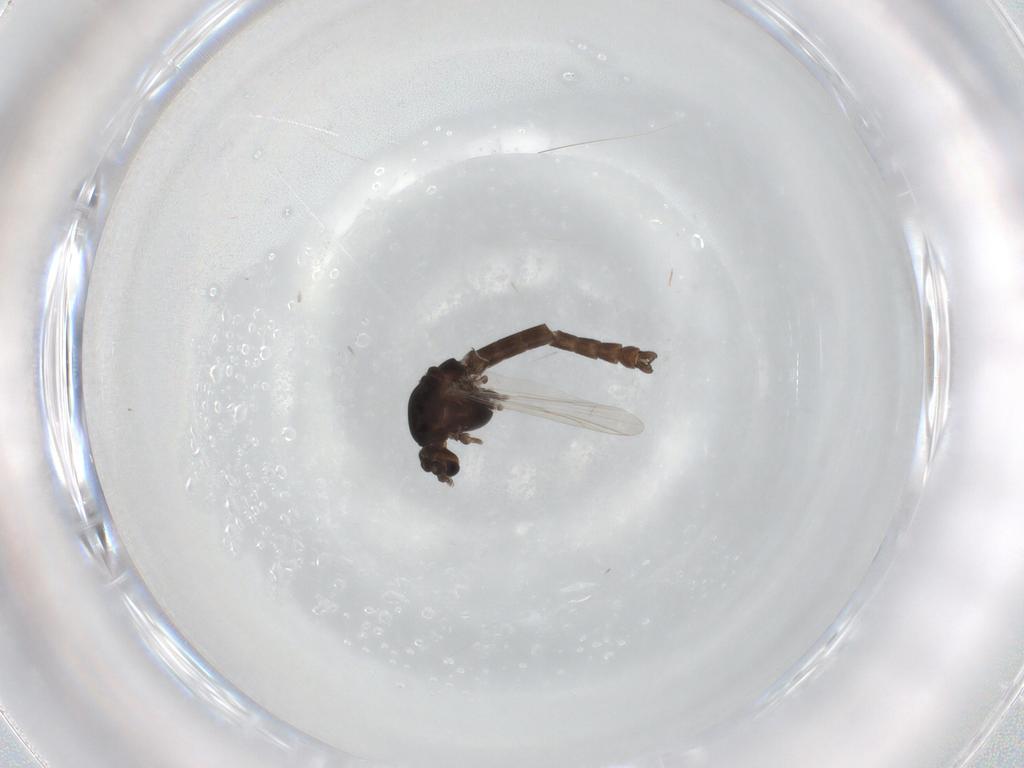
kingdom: Animalia
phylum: Arthropoda
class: Insecta
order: Diptera
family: Chironomidae
